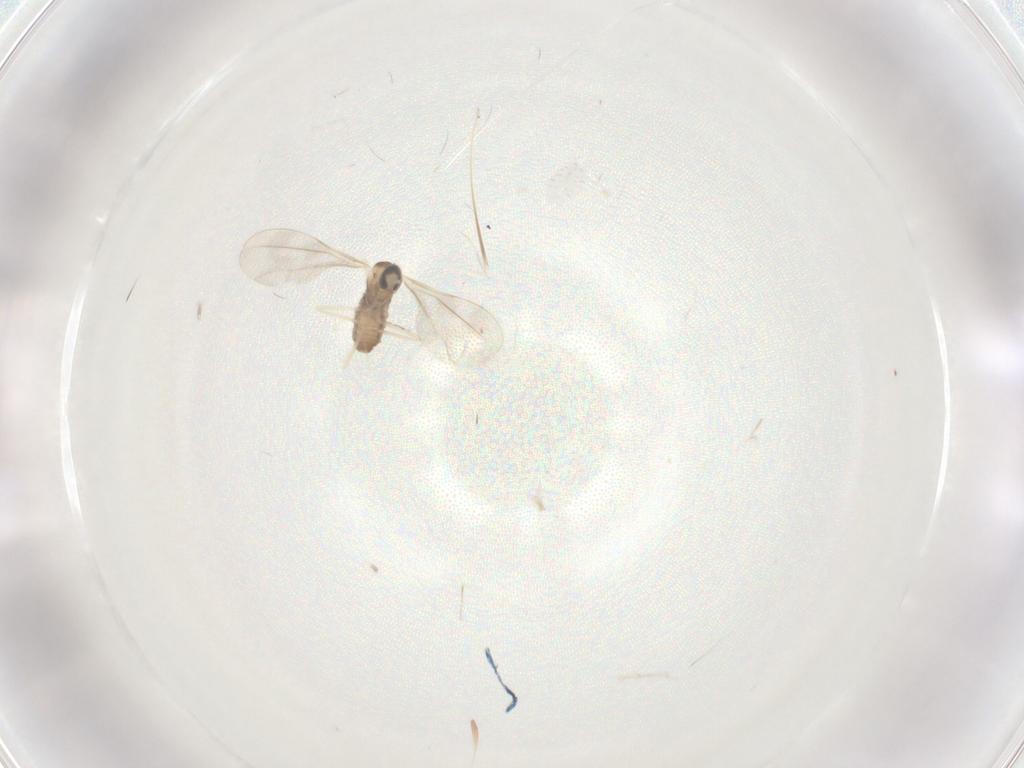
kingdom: Animalia
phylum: Arthropoda
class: Insecta
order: Diptera
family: Cecidomyiidae
